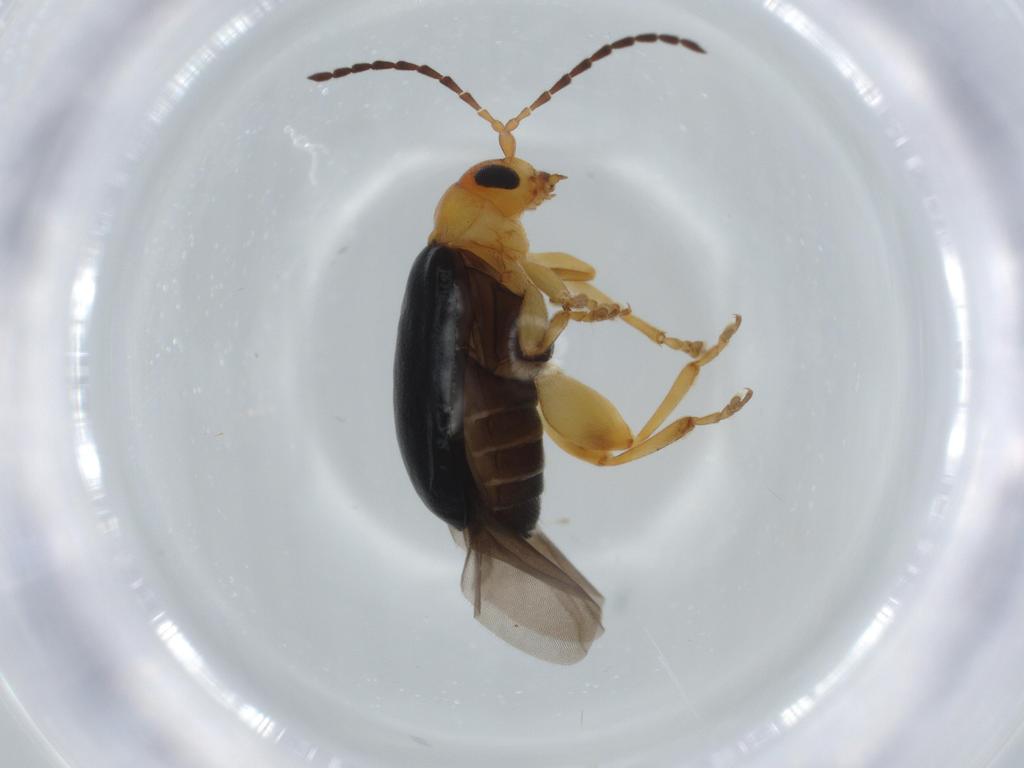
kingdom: Animalia
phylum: Arthropoda
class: Insecta
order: Coleoptera
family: Chrysomelidae
